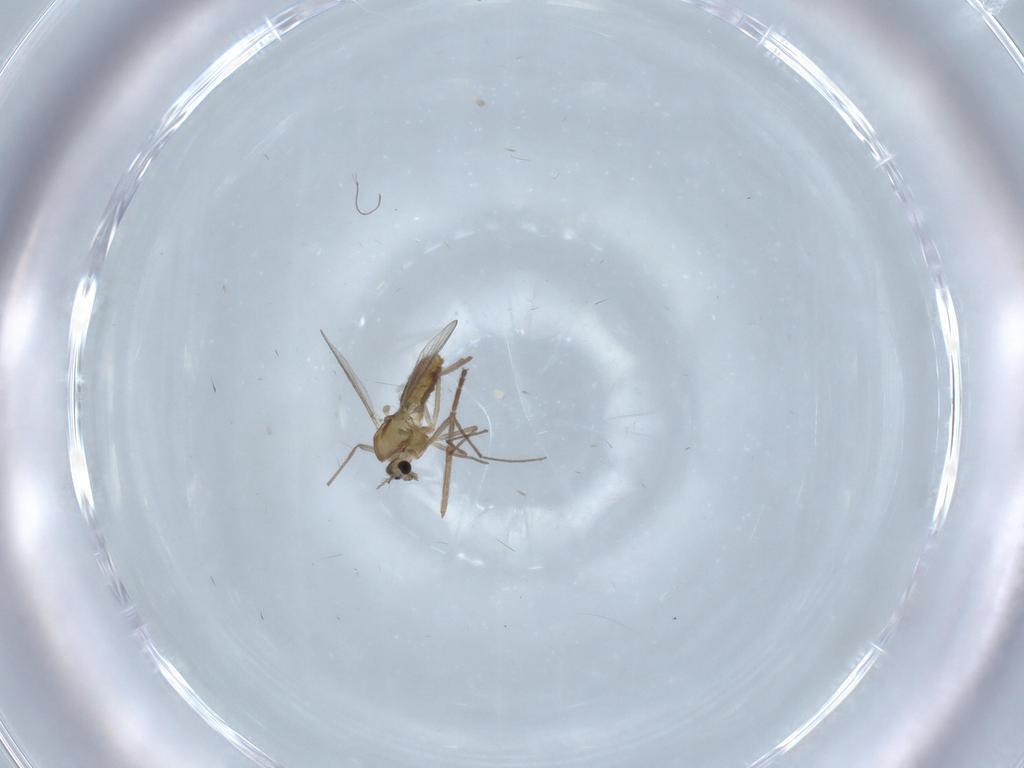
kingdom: Animalia
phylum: Arthropoda
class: Insecta
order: Diptera
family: Chironomidae
